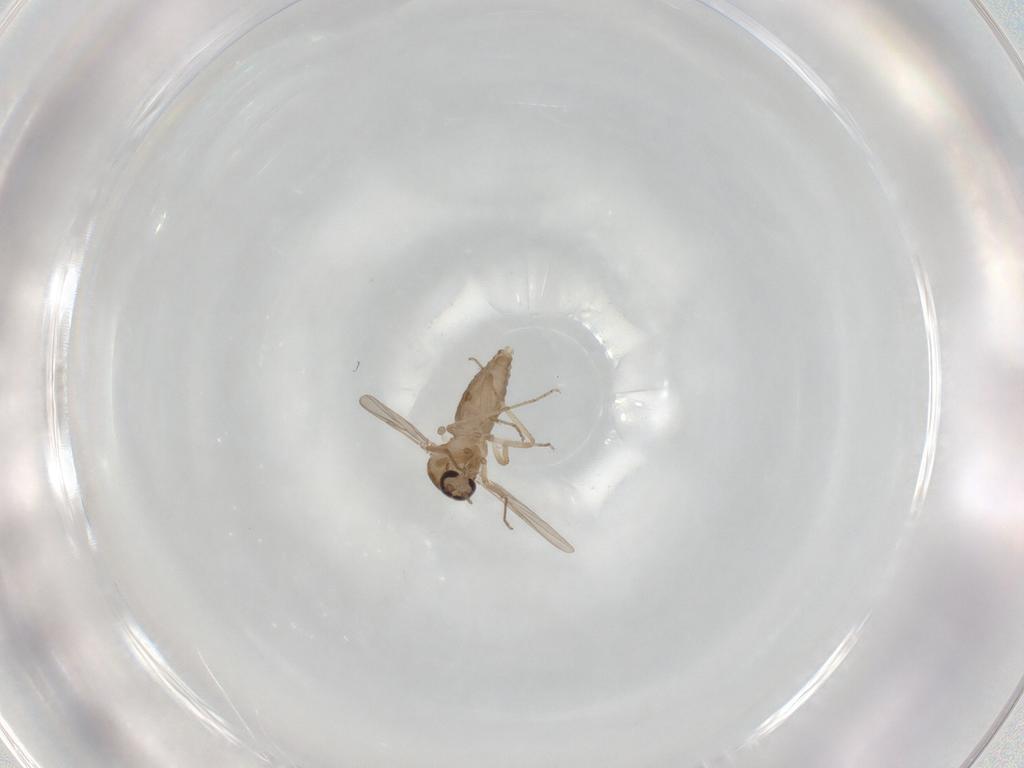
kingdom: Animalia
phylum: Arthropoda
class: Insecta
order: Diptera
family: Ceratopogonidae
